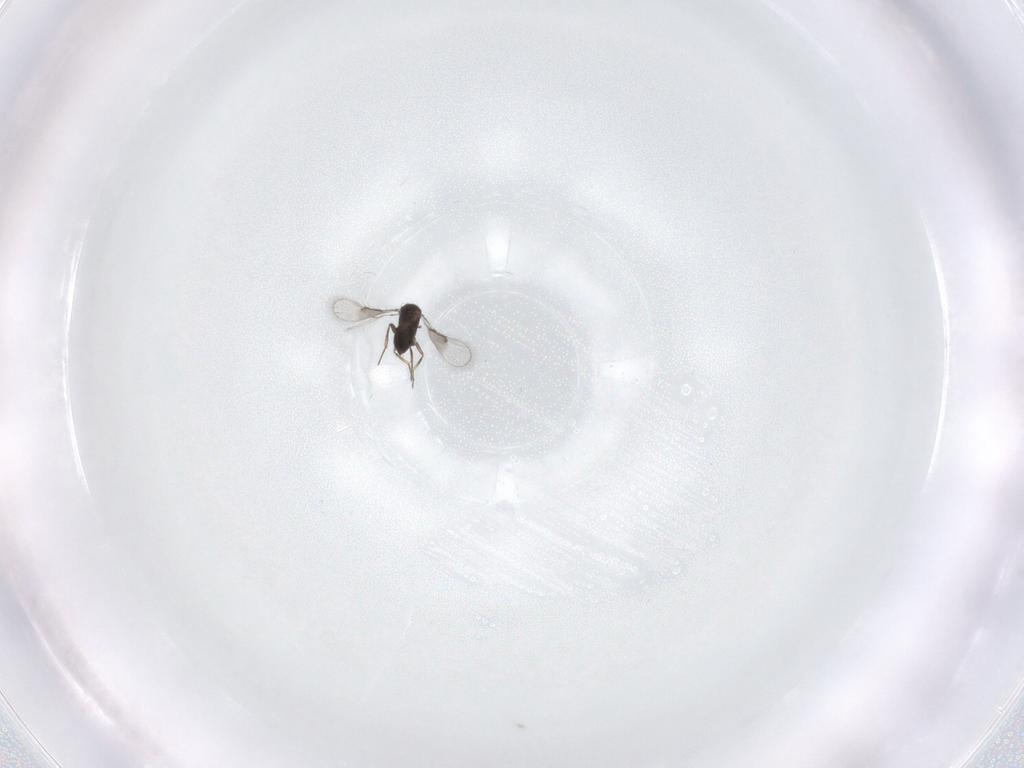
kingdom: Animalia
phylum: Arthropoda
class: Insecta
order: Hymenoptera
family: Trichogrammatidae
